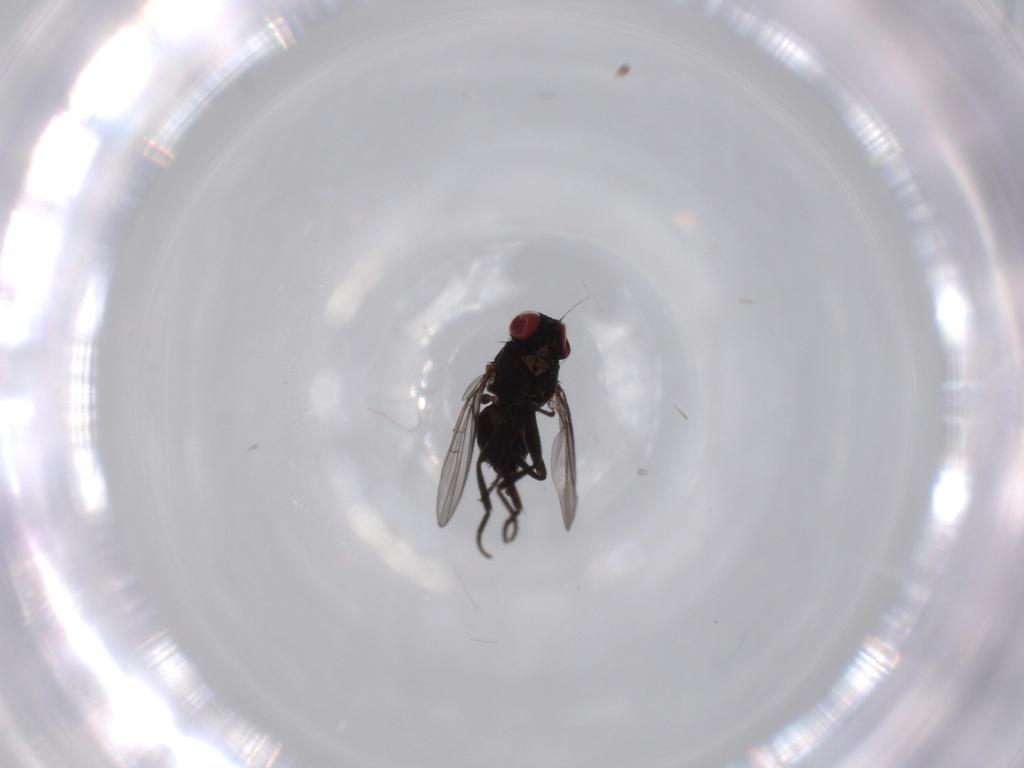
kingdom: Animalia
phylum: Arthropoda
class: Insecta
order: Diptera
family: Agromyzidae
